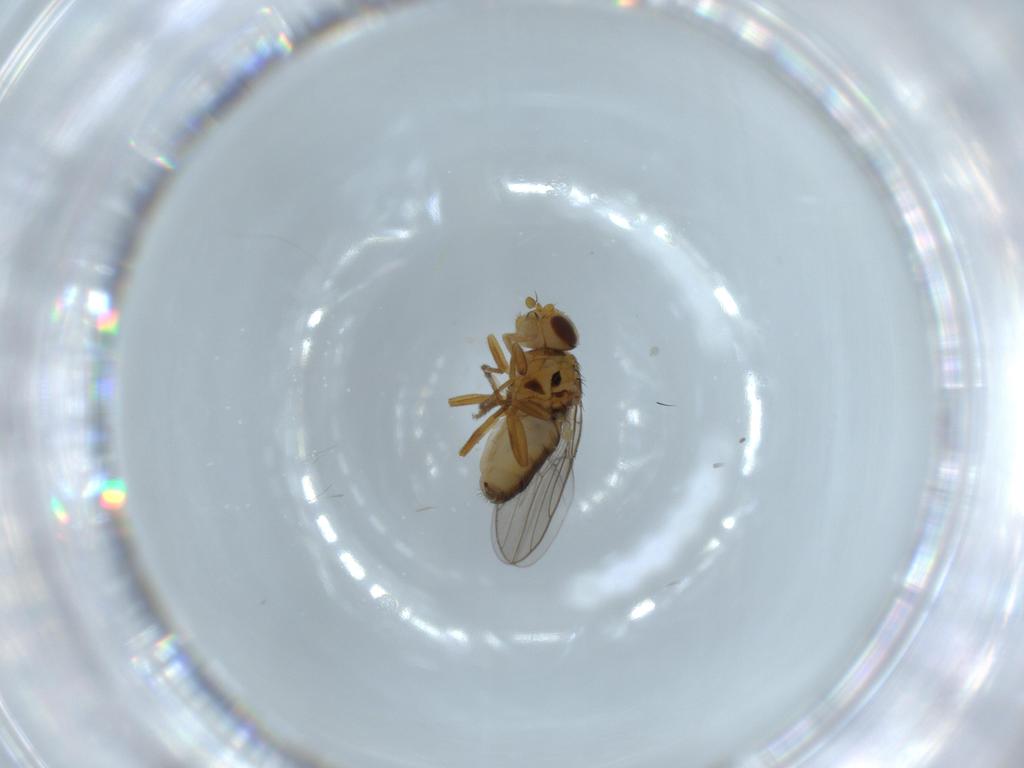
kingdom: Animalia
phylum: Arthropoda
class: Insecta
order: Diptera
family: Chloropidae
